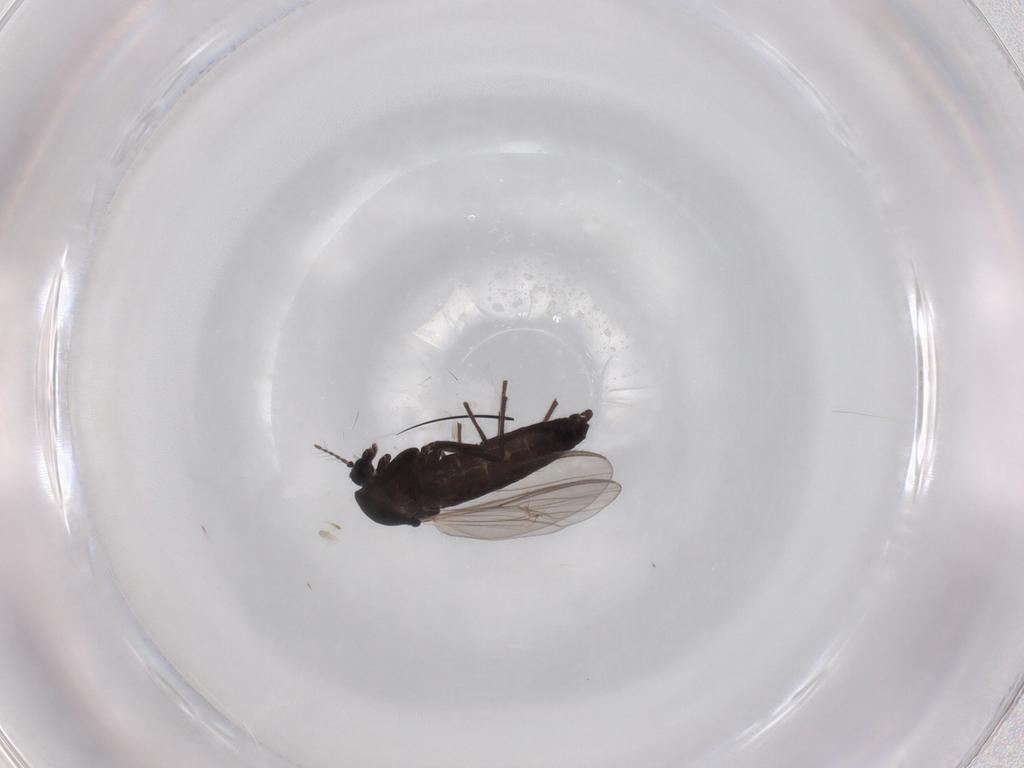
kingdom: Animalia
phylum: Arthropoda
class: Insecta
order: Diptera
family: Chironomidae
